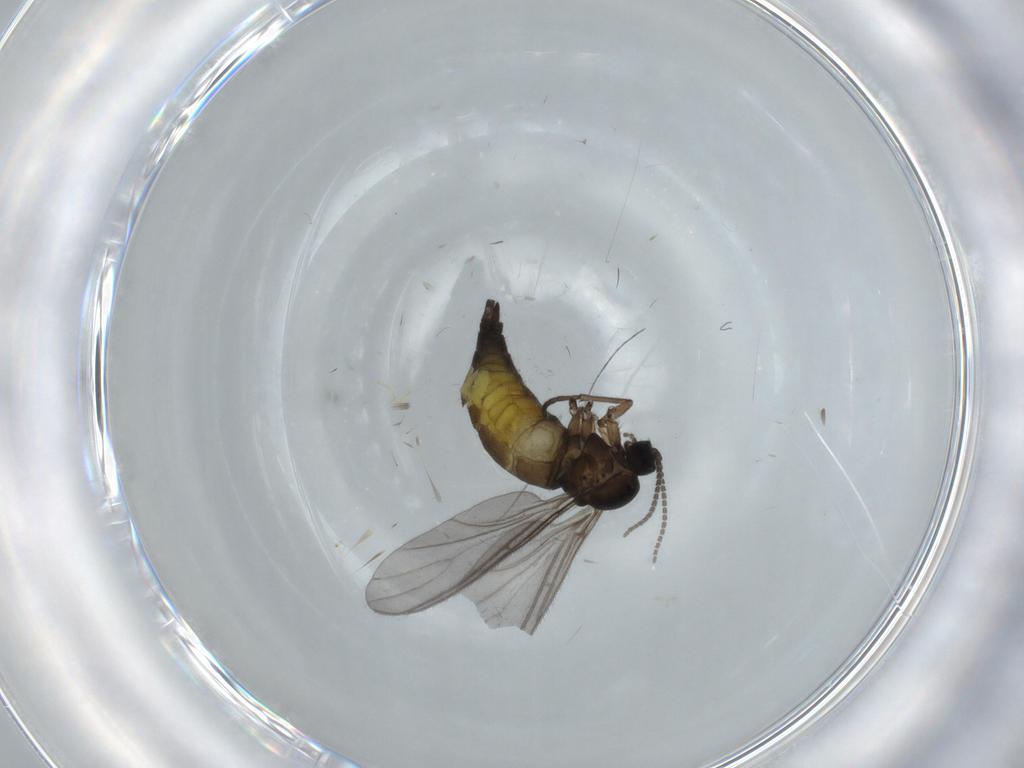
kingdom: Animalia
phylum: Arthropoda
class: Insecta
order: Diptera
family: Sciaridae
